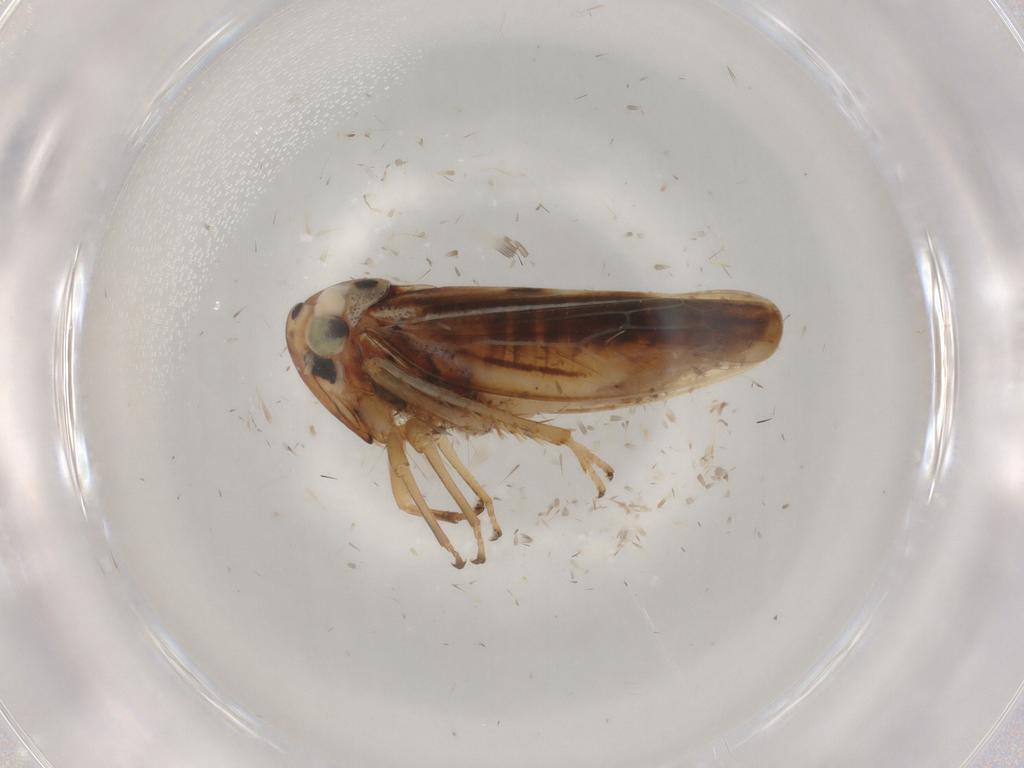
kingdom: Animalia
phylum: Arthropoda
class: Insecta
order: Hemiptera
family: Cicadellidae
